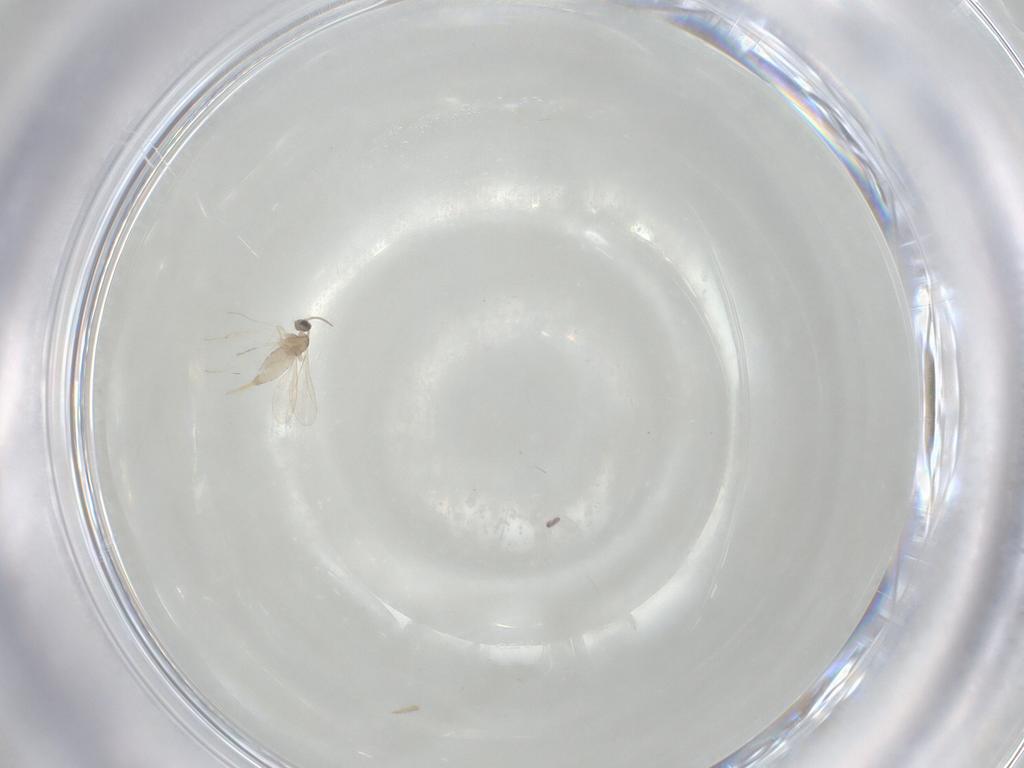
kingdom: Animalia
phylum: Arthropoda
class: Insecta
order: Diptera
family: Cecidomyiidae
